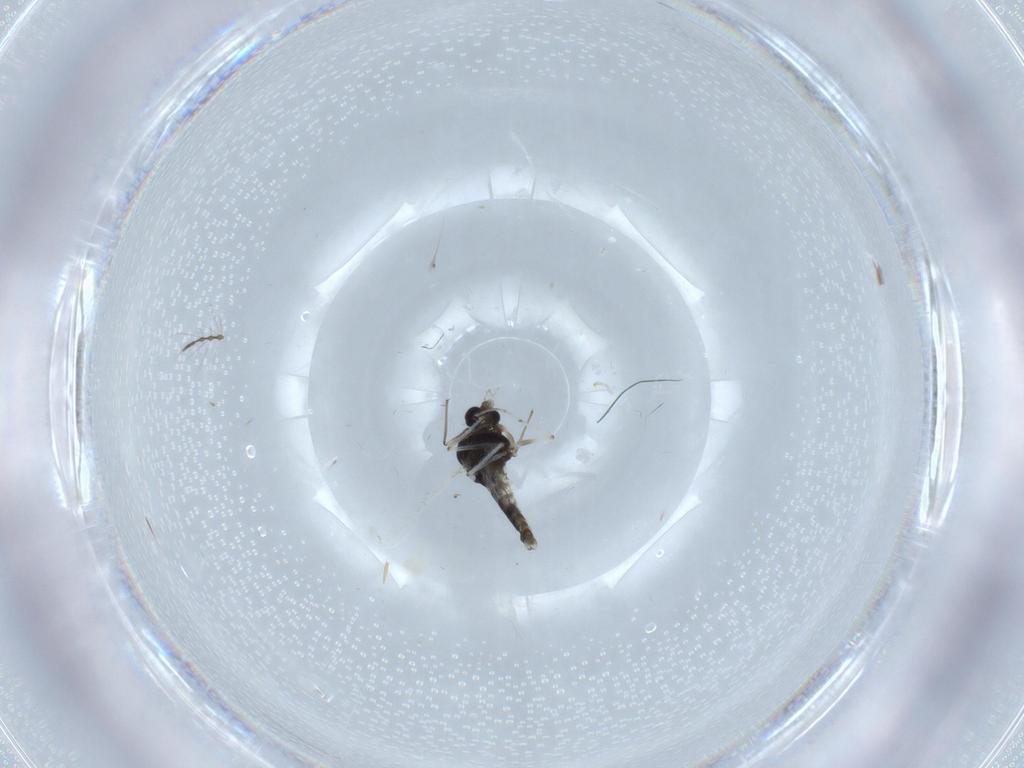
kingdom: Animalia
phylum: Arthropoda
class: Insecta
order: Diptera
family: Chironomidae
